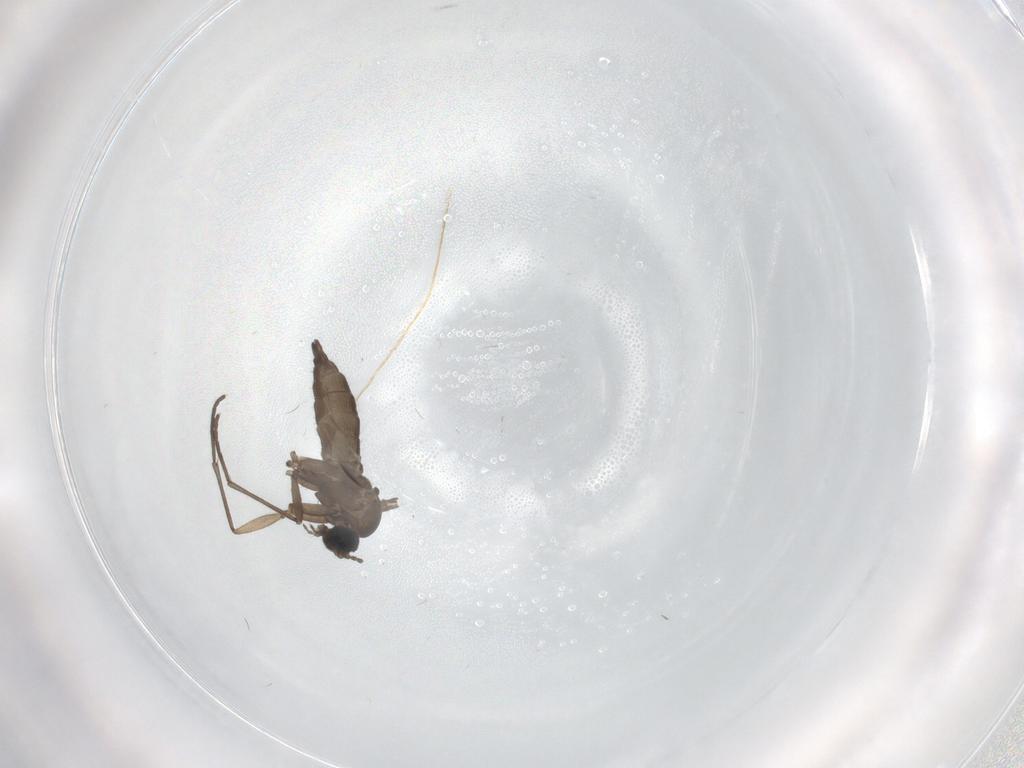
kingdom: Animalia
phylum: Arthropoda
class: Insecta
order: Diptera
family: Sciaridae
